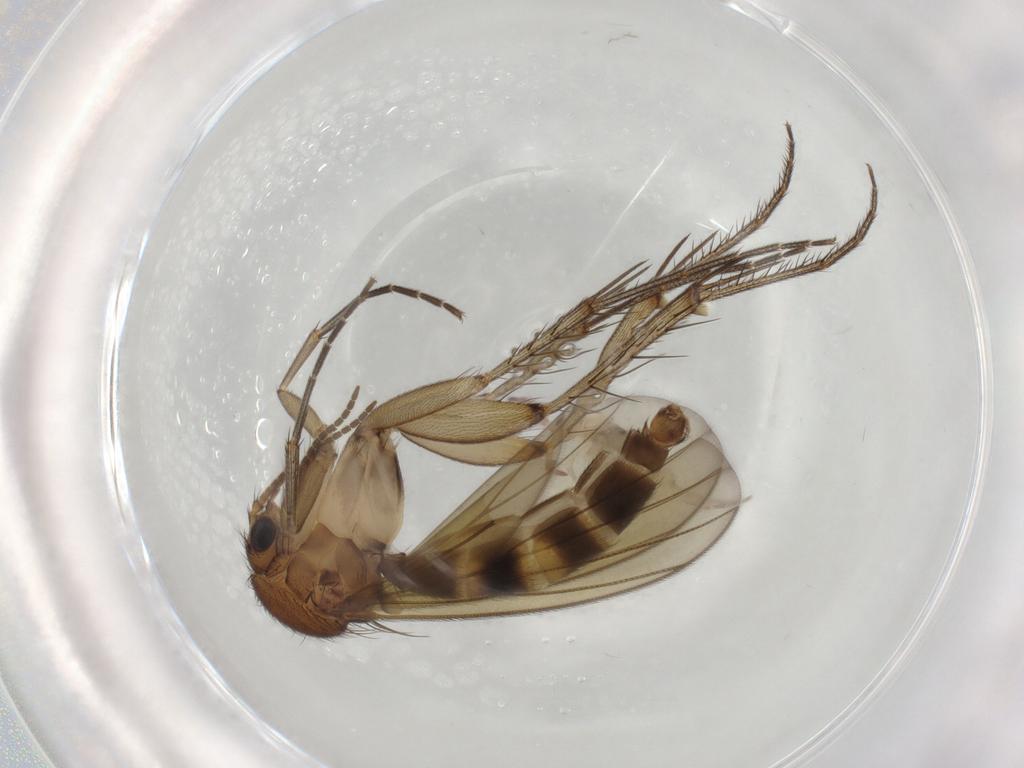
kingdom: Animalia
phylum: Arthropoda
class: Insecta
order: Diptera
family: Mycetophilidae
